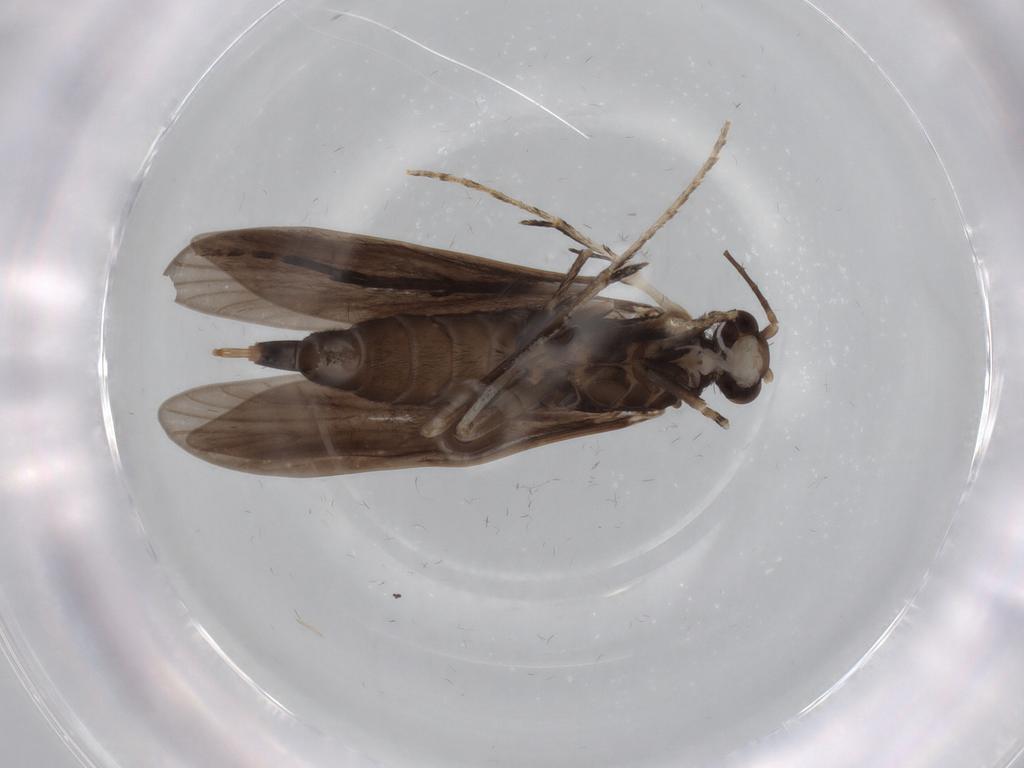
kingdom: Animalia
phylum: Arthropoda
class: Insecta
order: Trichoptera
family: Xiphocentronidae
